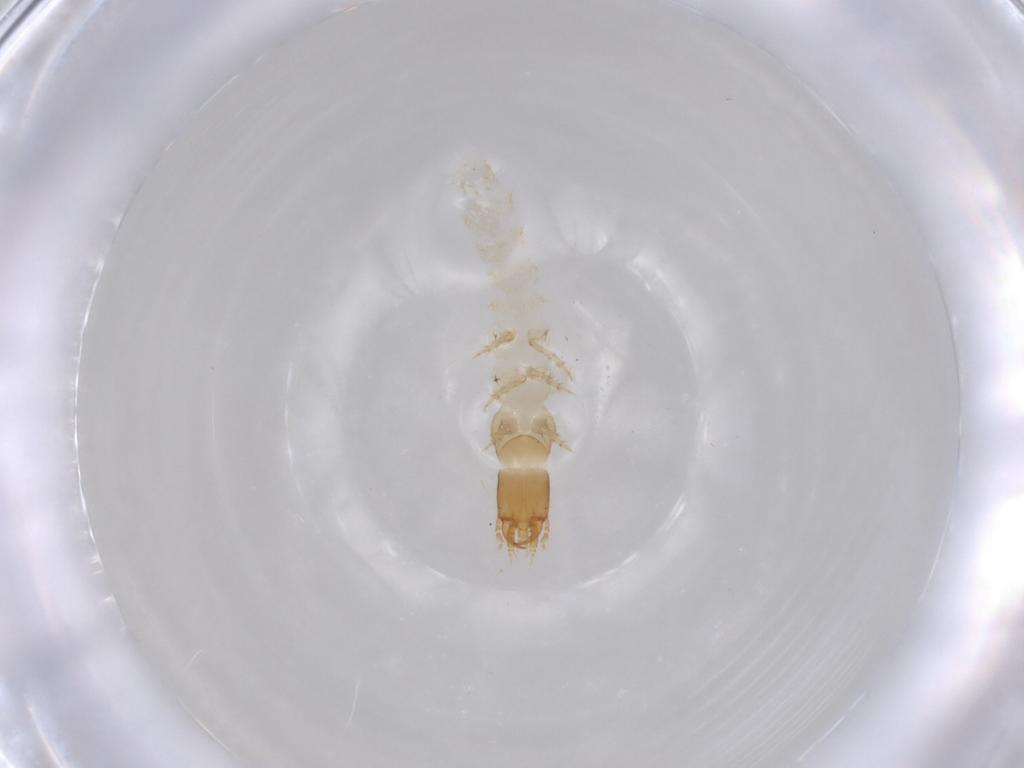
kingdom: Animalia
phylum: Arthropoda
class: Insecta
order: Coleoptera
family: Carabidae
